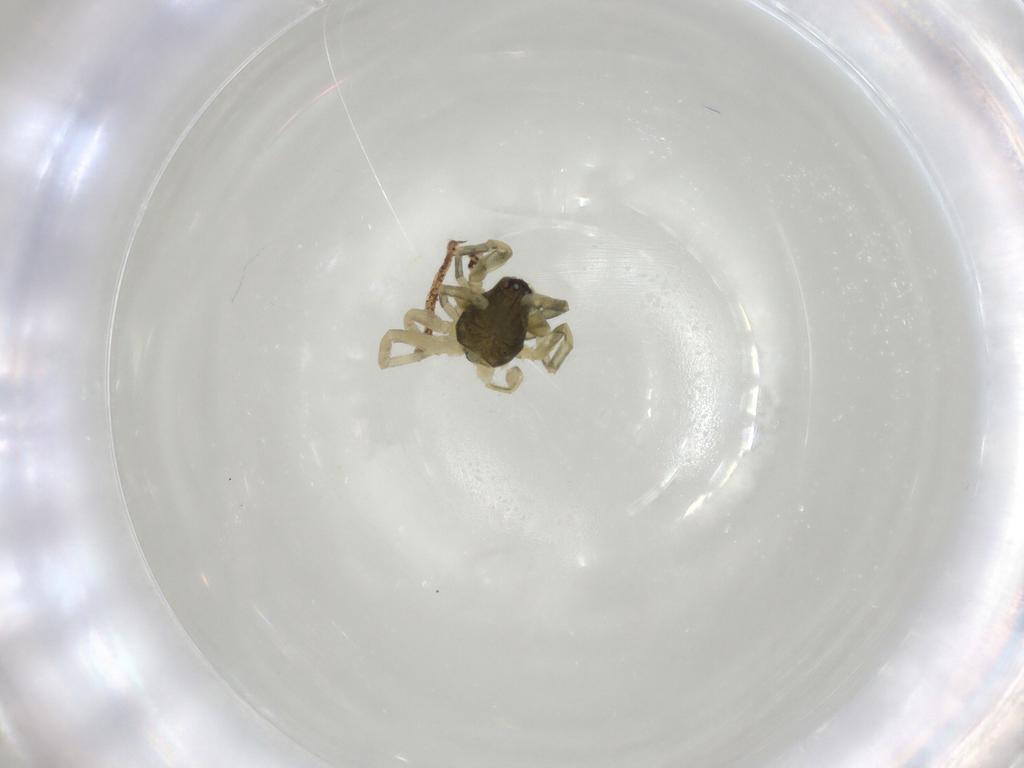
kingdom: Animalia
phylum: Arthropoda
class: Arachnida
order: Araneae
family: Trachelidae
